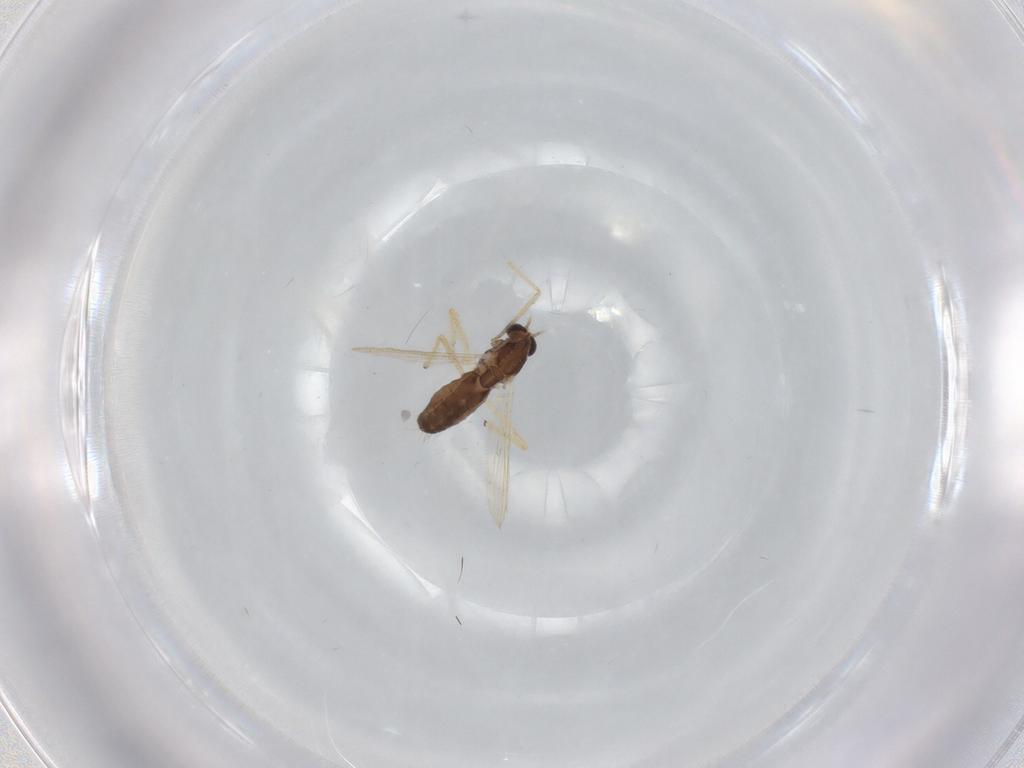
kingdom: Animalia
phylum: Arthropoda
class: Insecta
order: Diptera
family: Chironomidae
